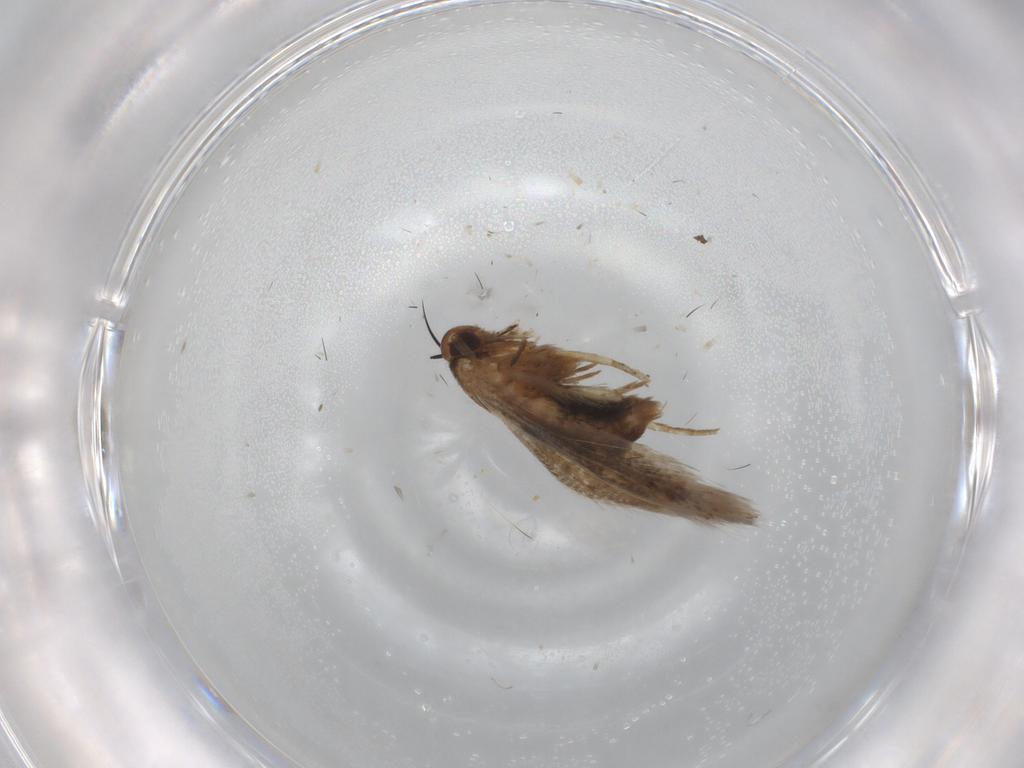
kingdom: Animalia
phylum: Arthropoda
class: Insecta
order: Lepidoptera
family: Cosmopterigidae
